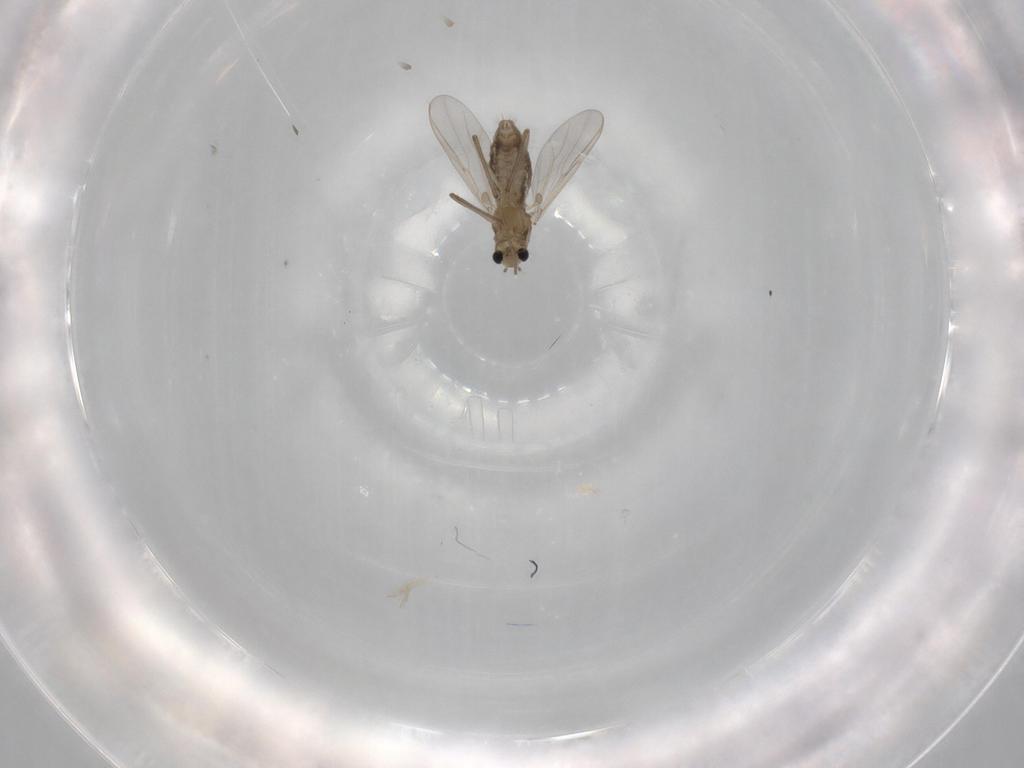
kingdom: Animalia
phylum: Arthropoda
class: Insecta
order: Diptera
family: Chironomidae
